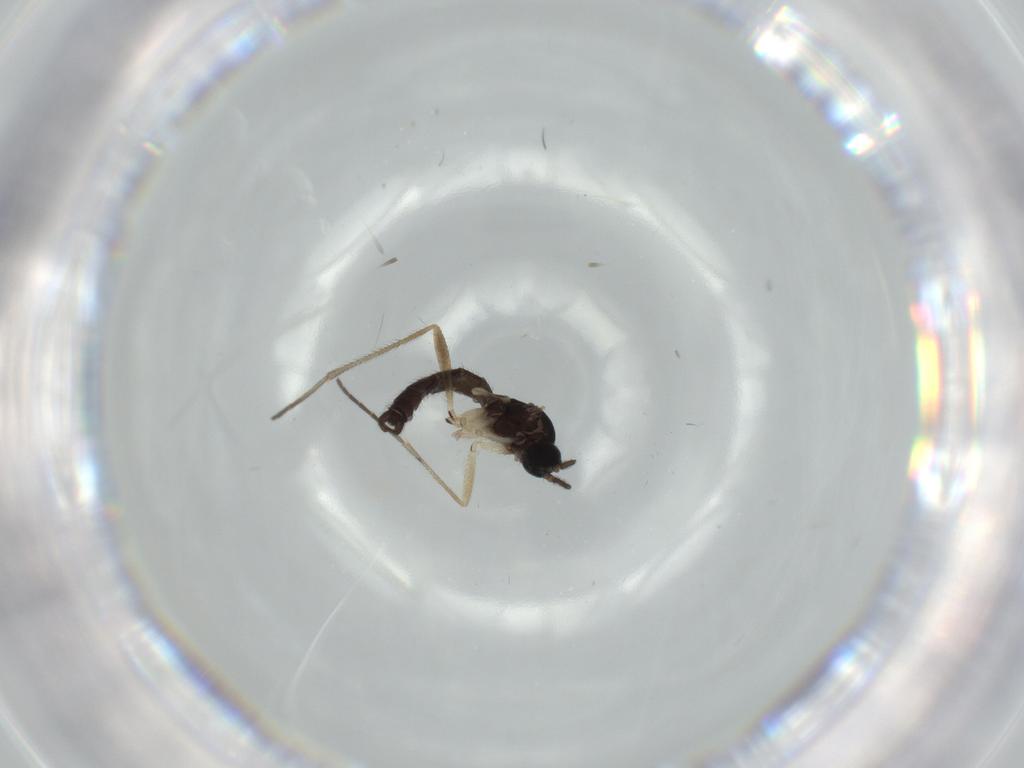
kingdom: Animalia
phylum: Arthropoda
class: Insecta
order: Diptera
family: Sciaridae
